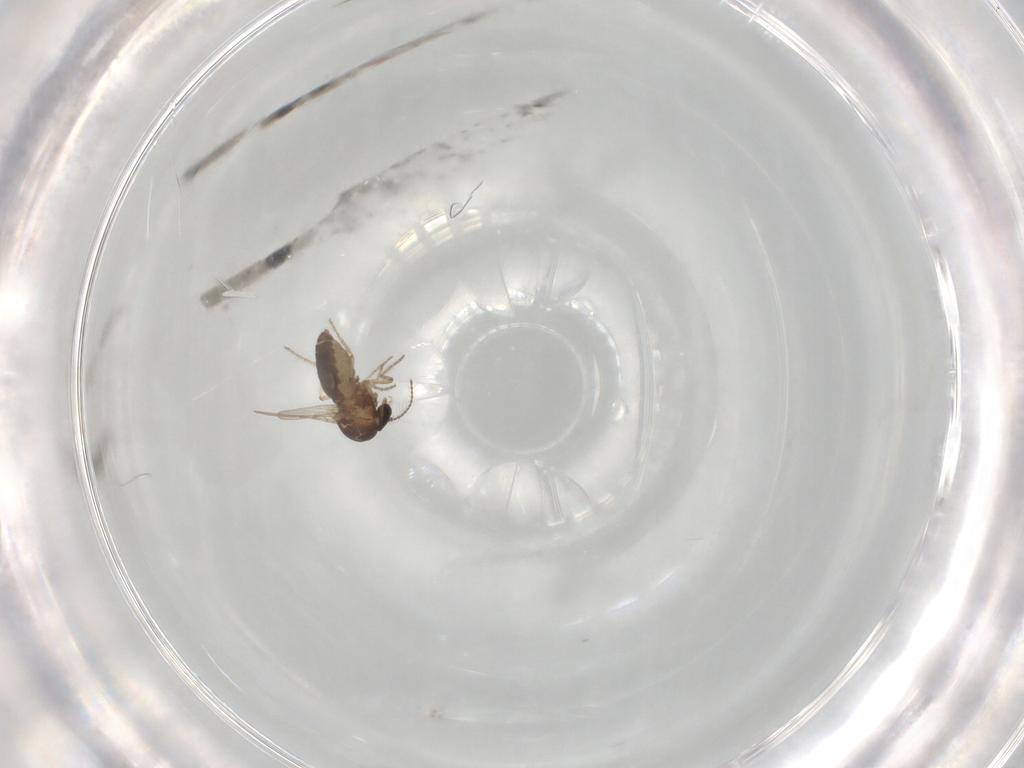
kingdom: Animalia
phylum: Arthropoda
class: Insecta
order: Diptera
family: Ceratopogonidae
